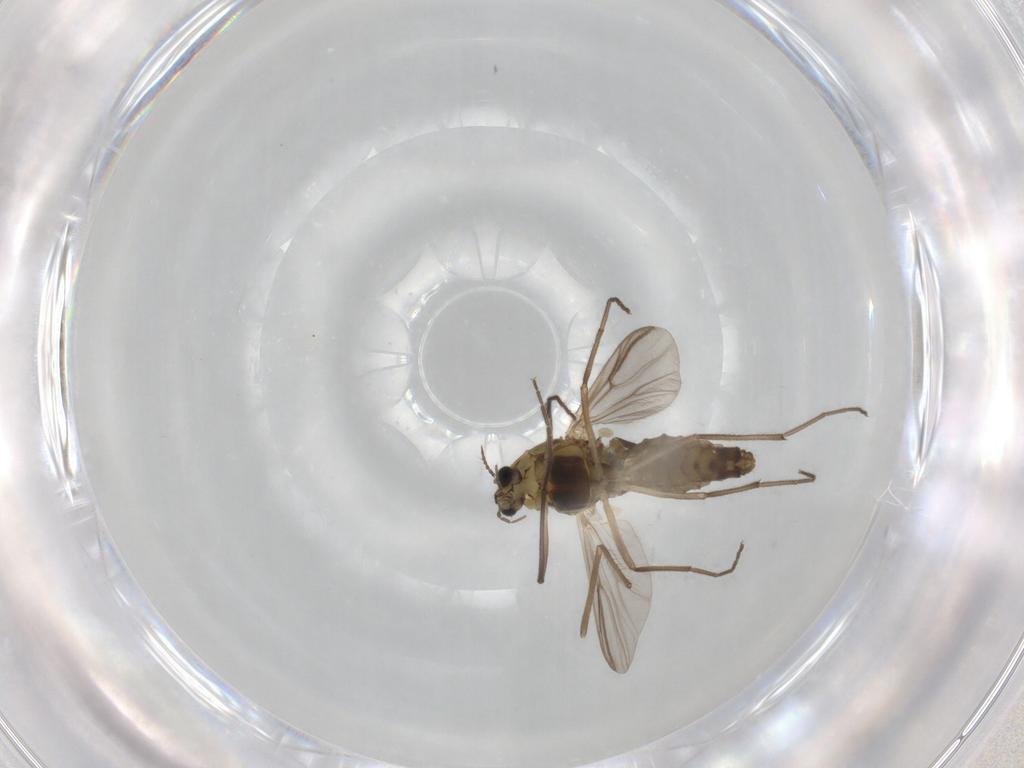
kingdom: Animalia
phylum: Arthropoda
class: Insecta
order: Diptera
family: Chironomidae
